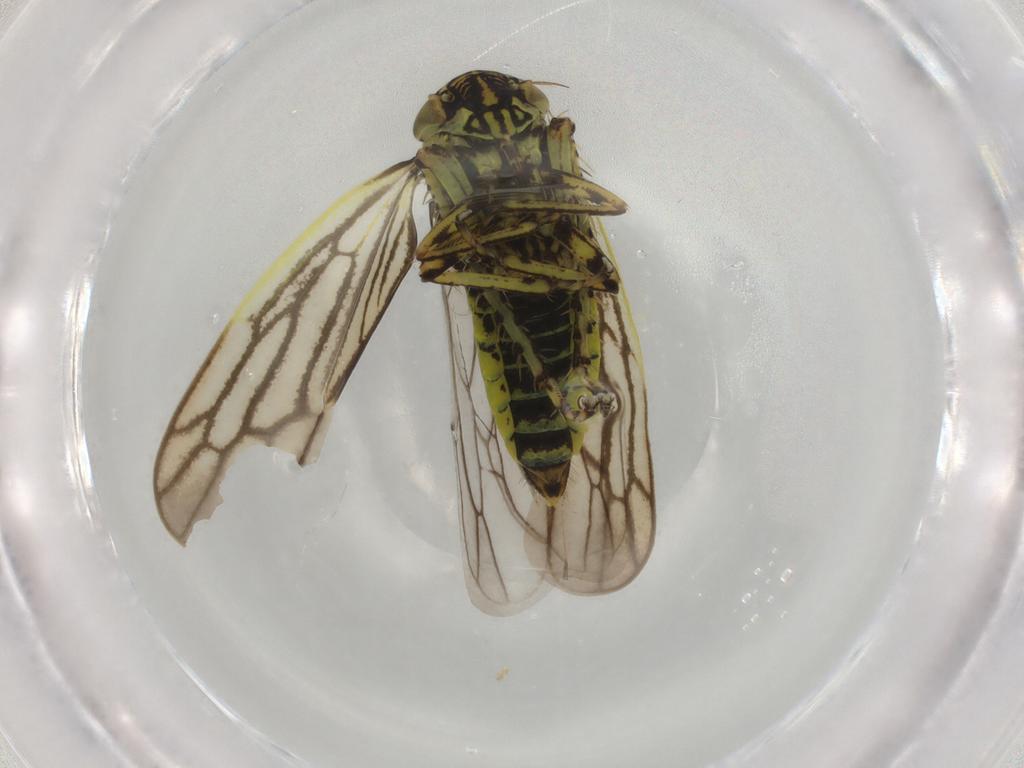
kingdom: Animalia
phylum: Arthropoda
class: Insecta
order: Hemiptera
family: Cicadellidae
